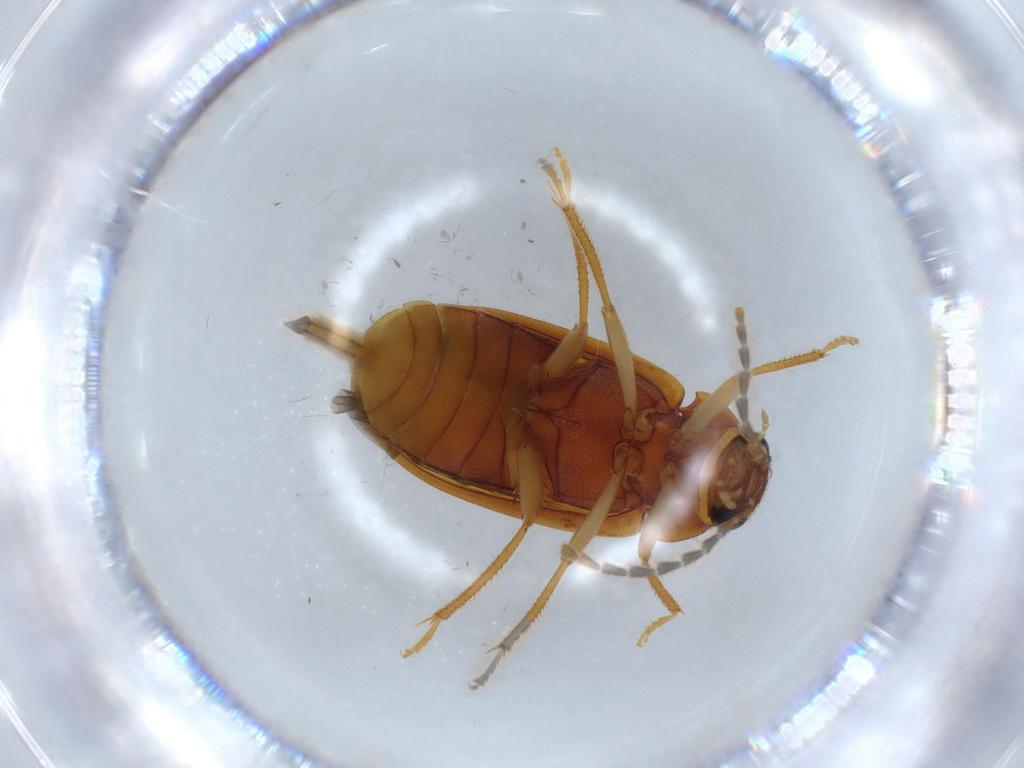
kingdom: Animalia
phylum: Arthropoda
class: Insecta
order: Coleoptera
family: Ptilodactylidae
